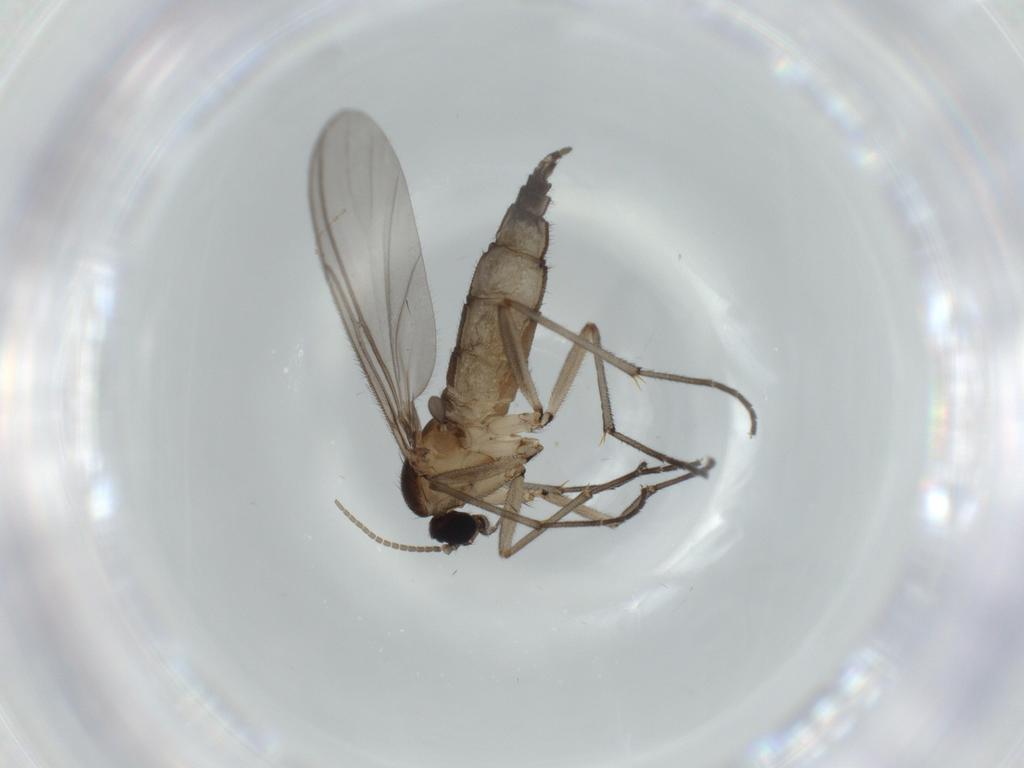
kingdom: Animalia
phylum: Arthropoda
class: Insecta
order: Diptera
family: Sciaridae
